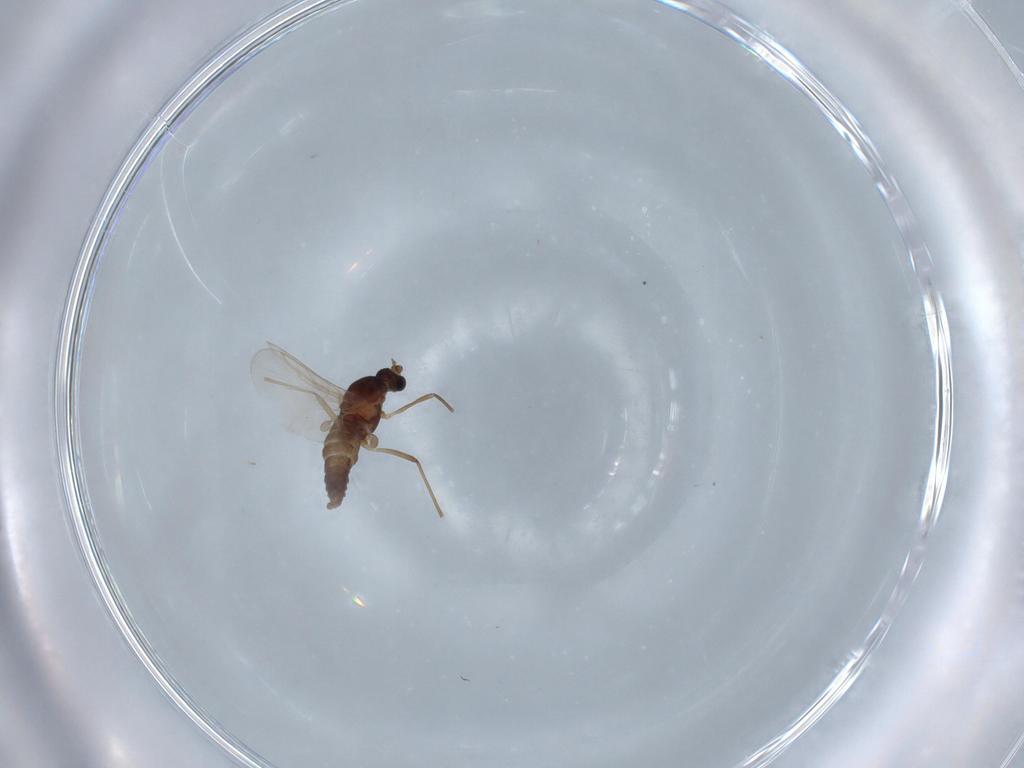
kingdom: Animalia
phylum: Arthropoda
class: Insecta
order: Diptera
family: Cecidomyiidae
